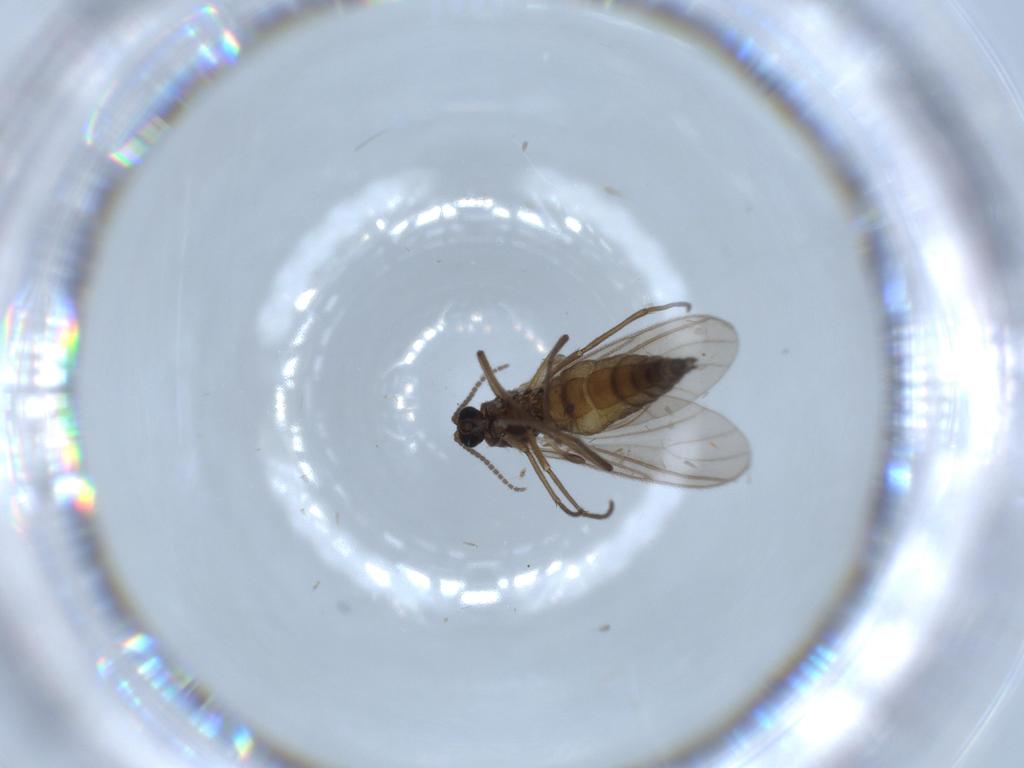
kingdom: Animalia
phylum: Arthropoda
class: Insecta
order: Diptera
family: Sciaridae
